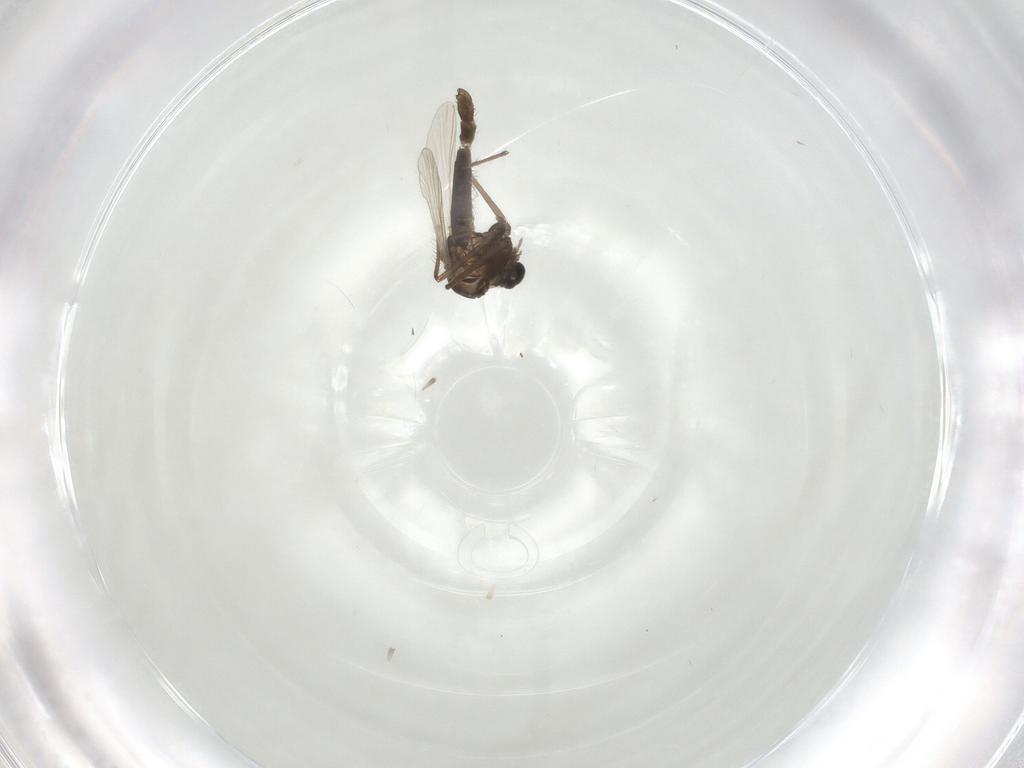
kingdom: Animalia
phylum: Arthropoda
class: Insecta
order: Diptera
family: Chironomidae
